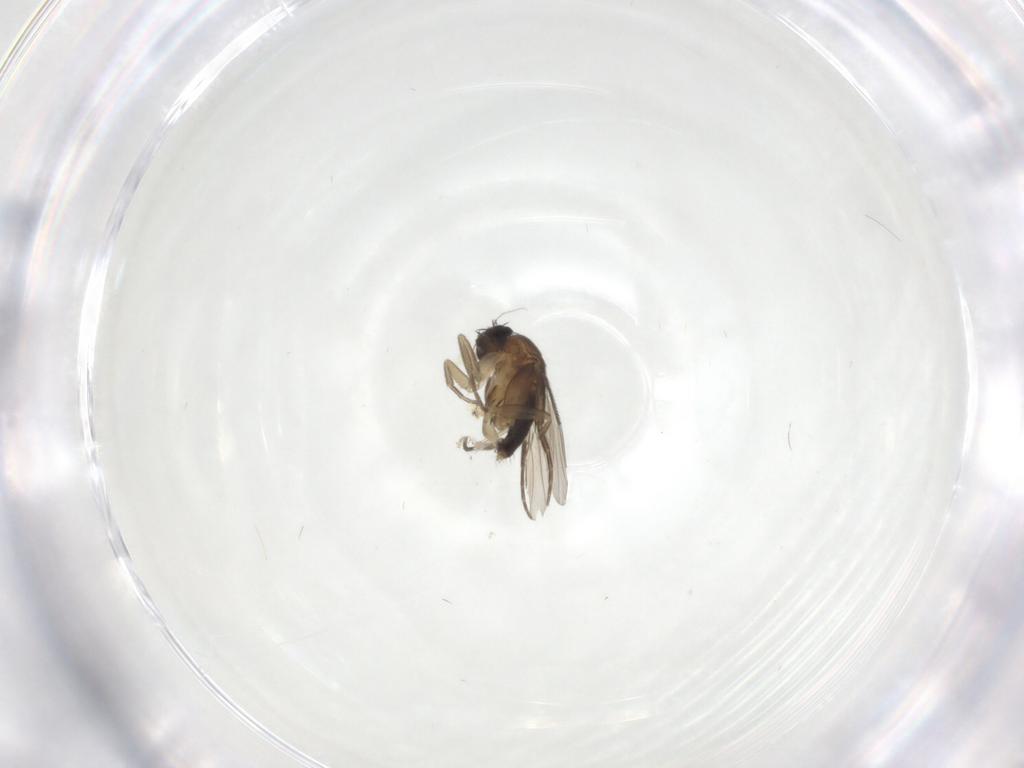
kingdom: Animalia
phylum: Arthropoda
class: Insecta
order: Diptera
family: Phoridae
